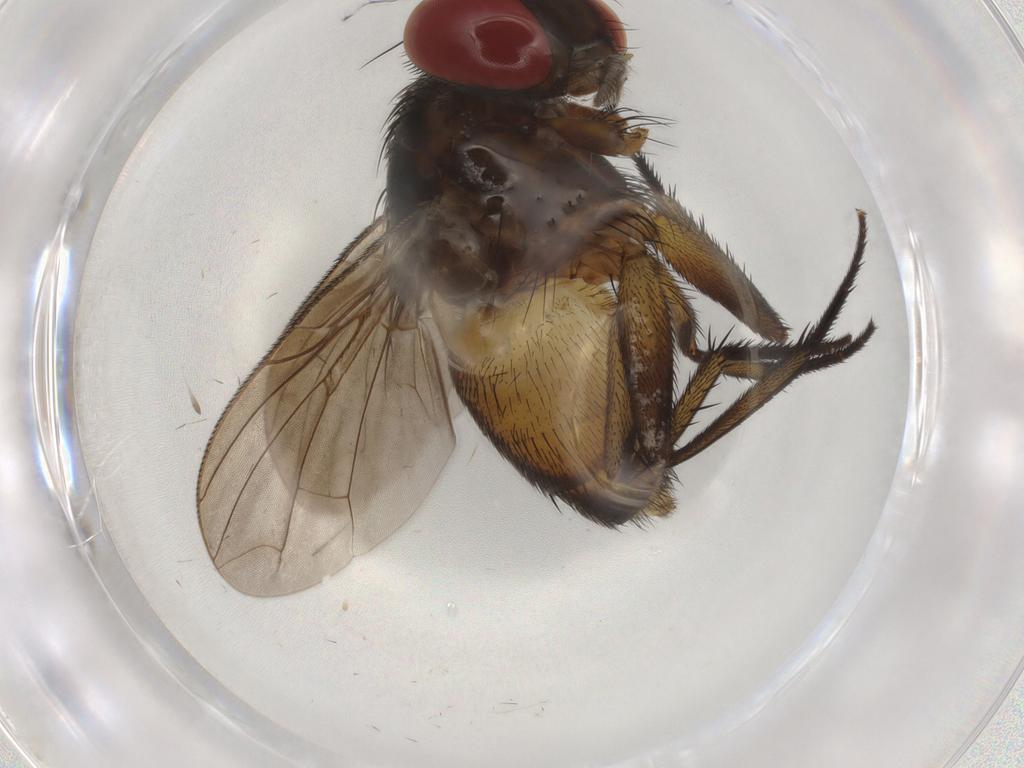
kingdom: Animalia
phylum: Arthropoda
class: Insecta
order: Diptera
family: Sarcophagidae
